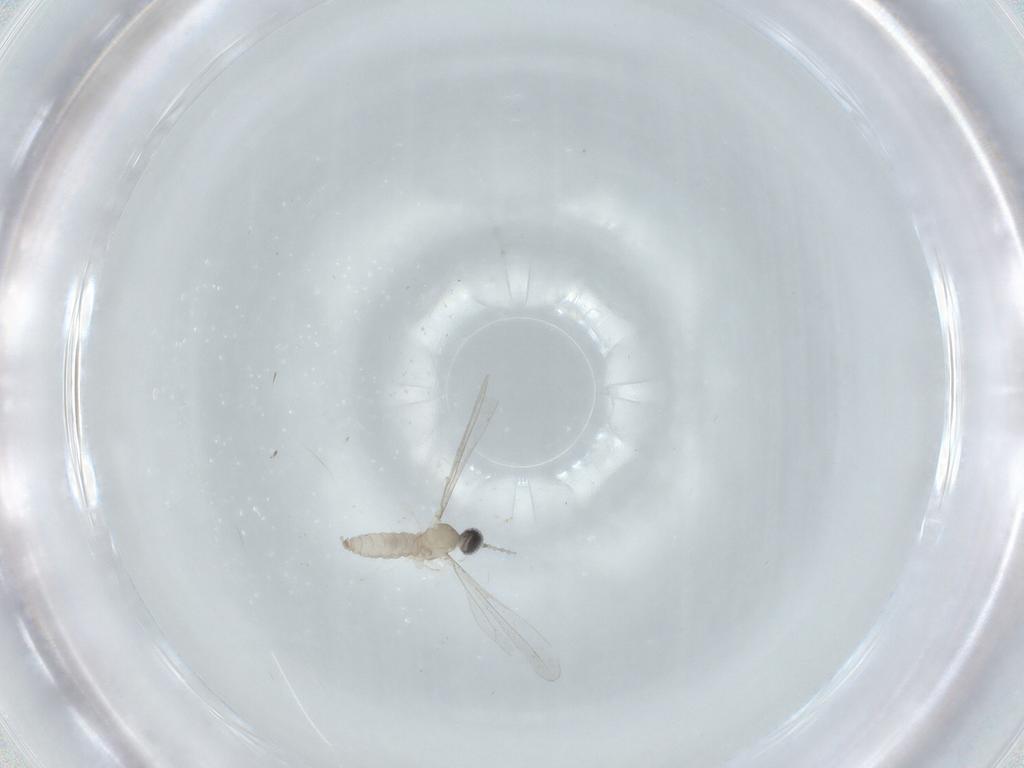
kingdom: Animalia
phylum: Arthropoda
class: Insecta
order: Diptera
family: Cecidomyiidae
